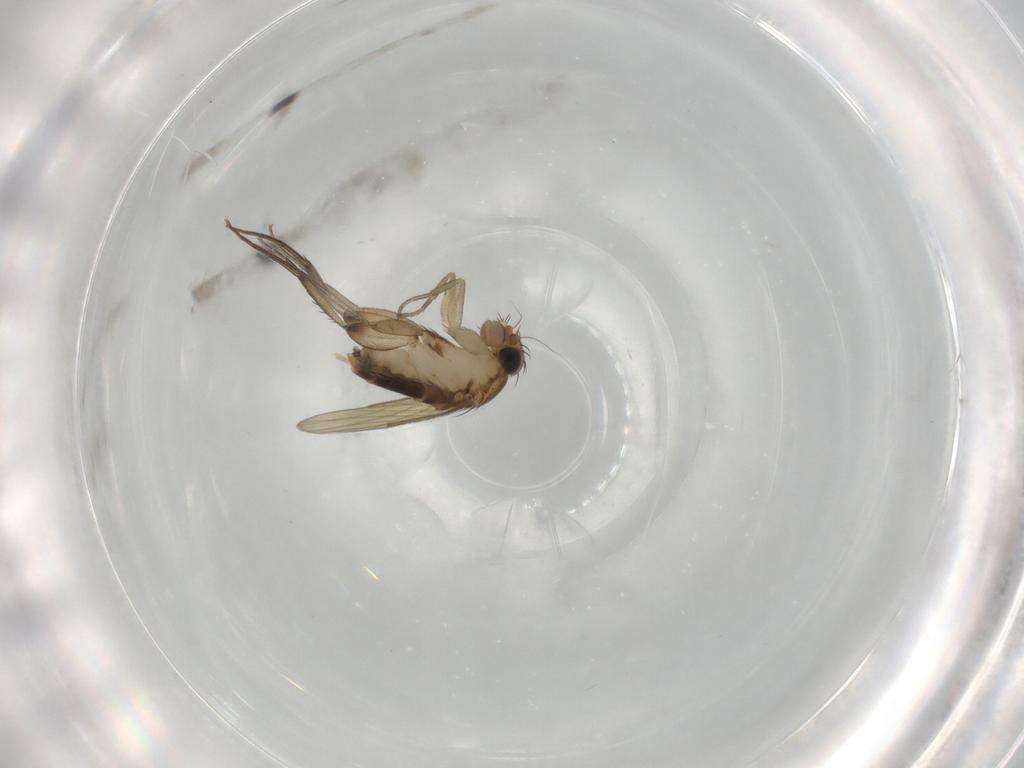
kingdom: Animalia
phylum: Arthropoda
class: Insecta
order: Diptera
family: Phoridae
